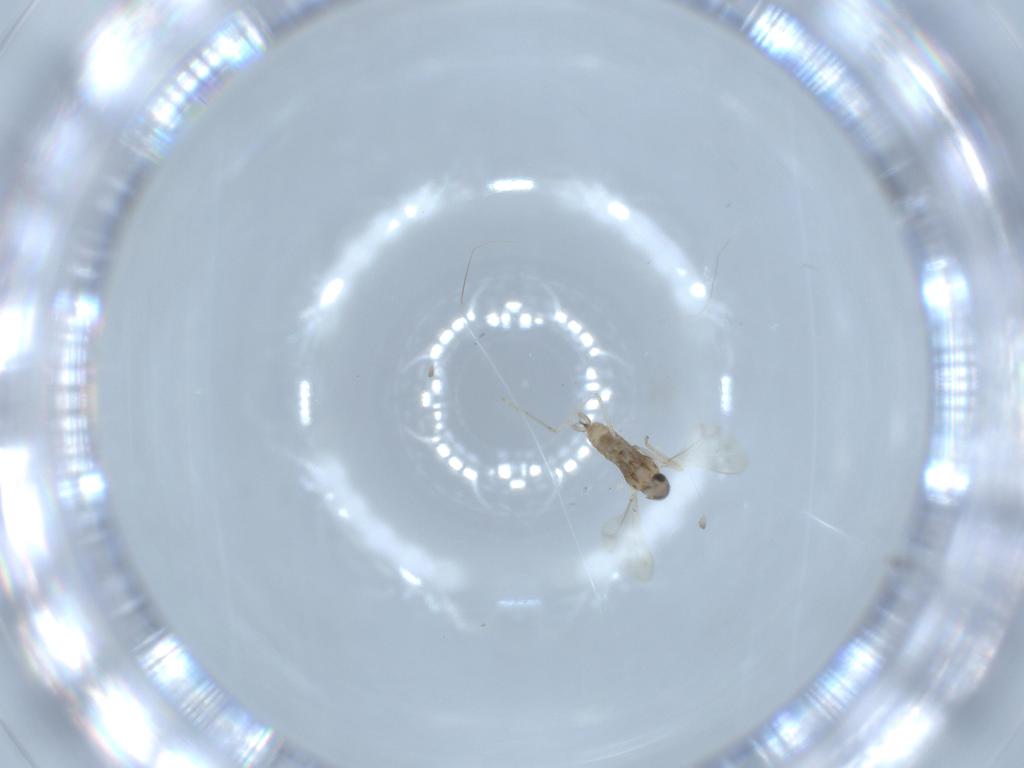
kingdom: Animalia
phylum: Arthropoda
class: Insecta
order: Diptera
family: Cecidomyiidae
